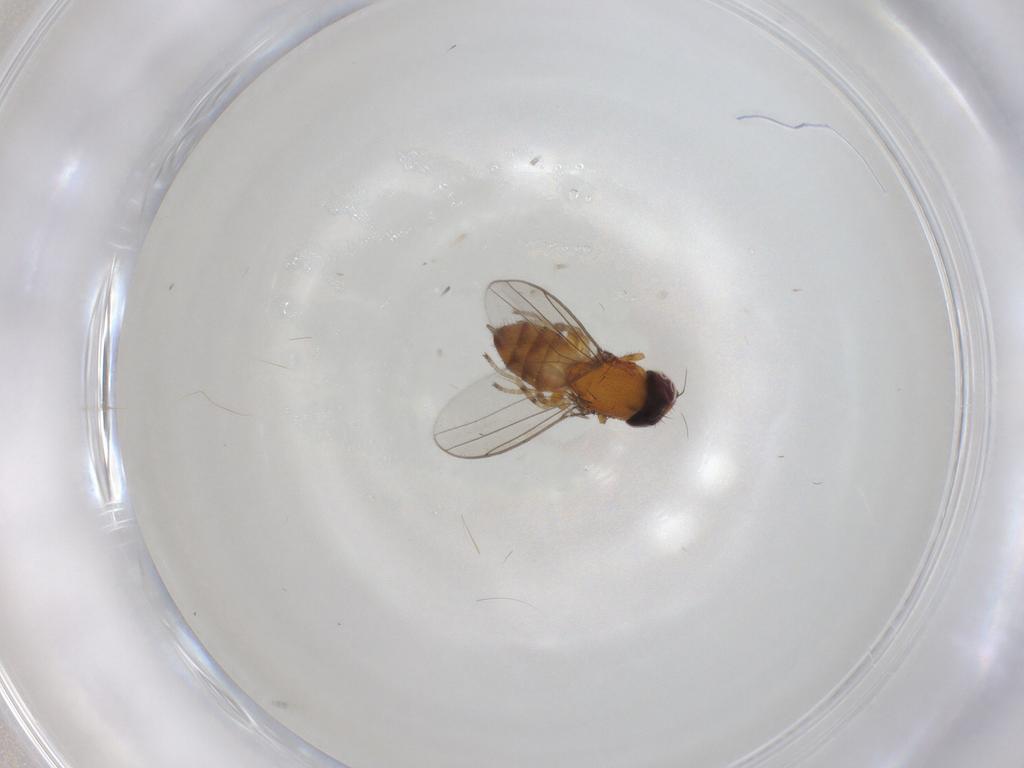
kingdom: Animalia
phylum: Arthropoda
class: Insecta
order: Diptera
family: Chloropidae
